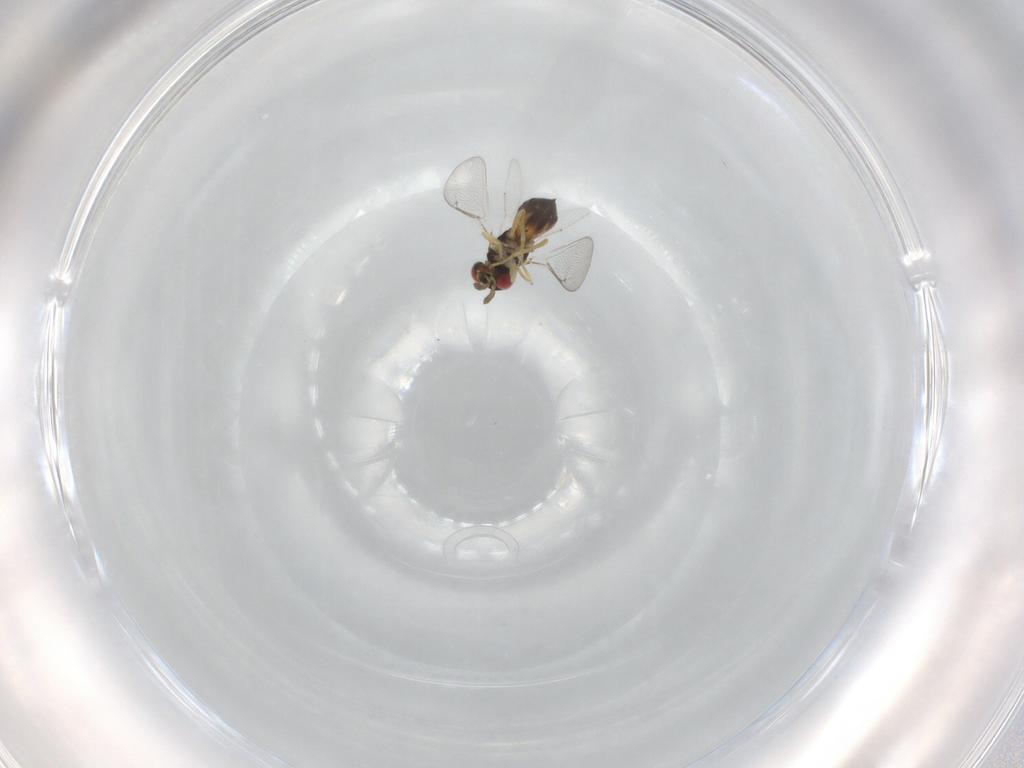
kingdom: Animalia
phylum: Arthropoda
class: Insecta
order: Hymenoptera
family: Eulophidae
